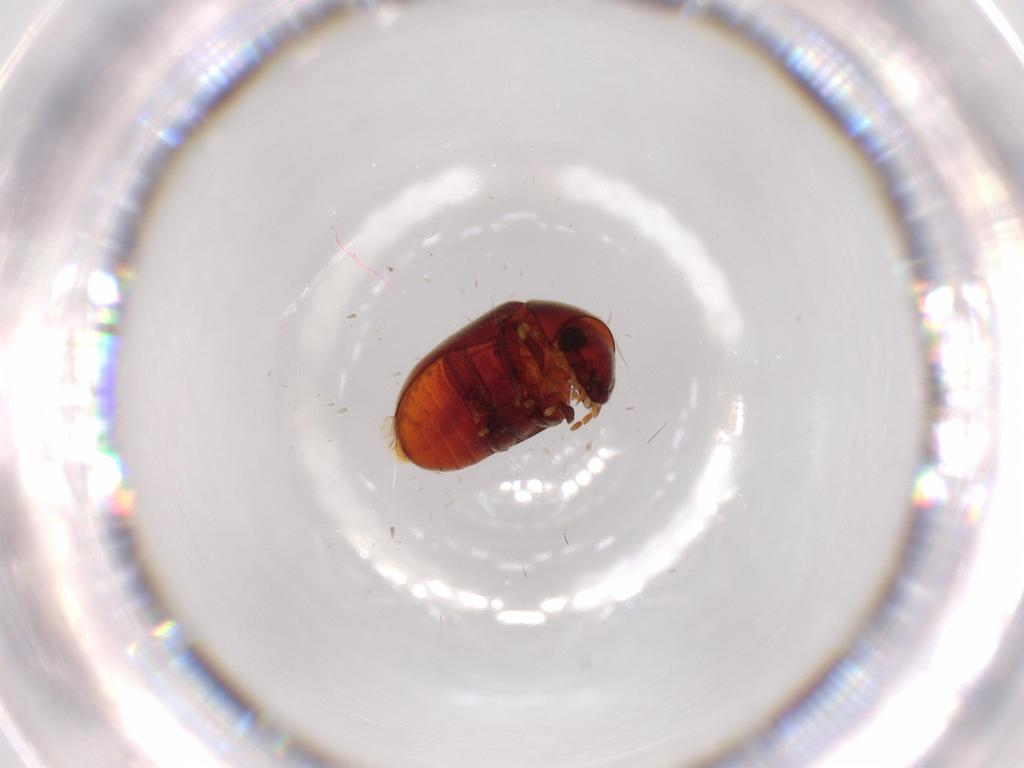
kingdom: Animalia
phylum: Arthropoda
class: Insecta
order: Coleoptera
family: Ptinidae
